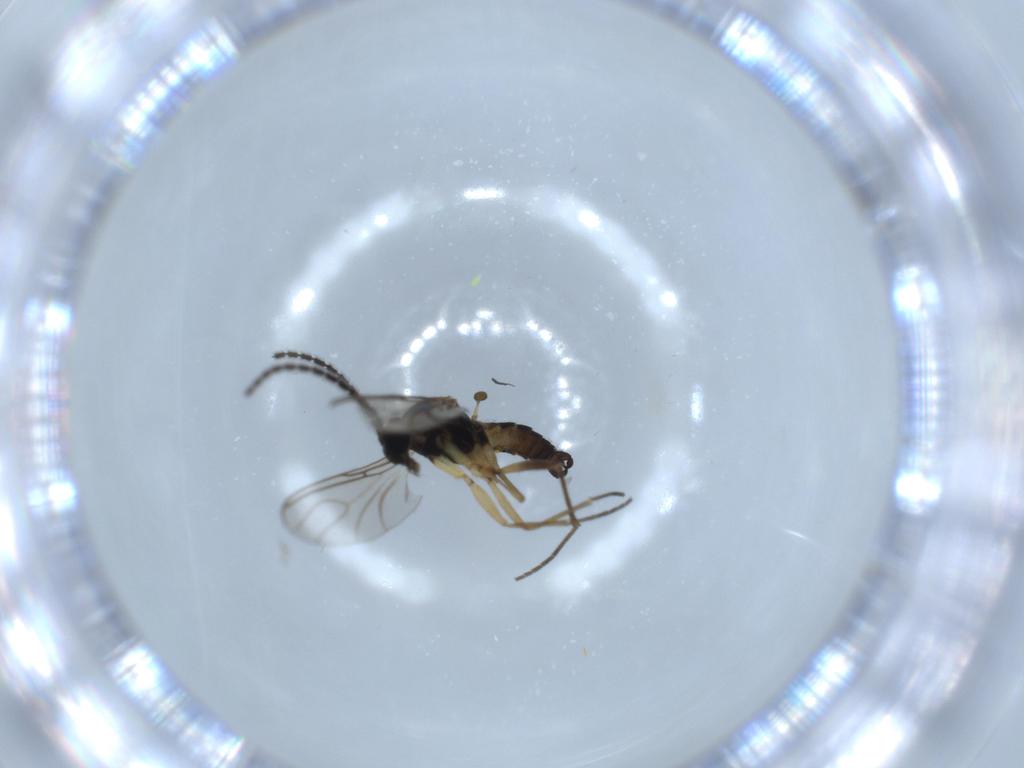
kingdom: Animalia
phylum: Arthropoda
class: Insecta
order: Diptera
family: Sciaridae
